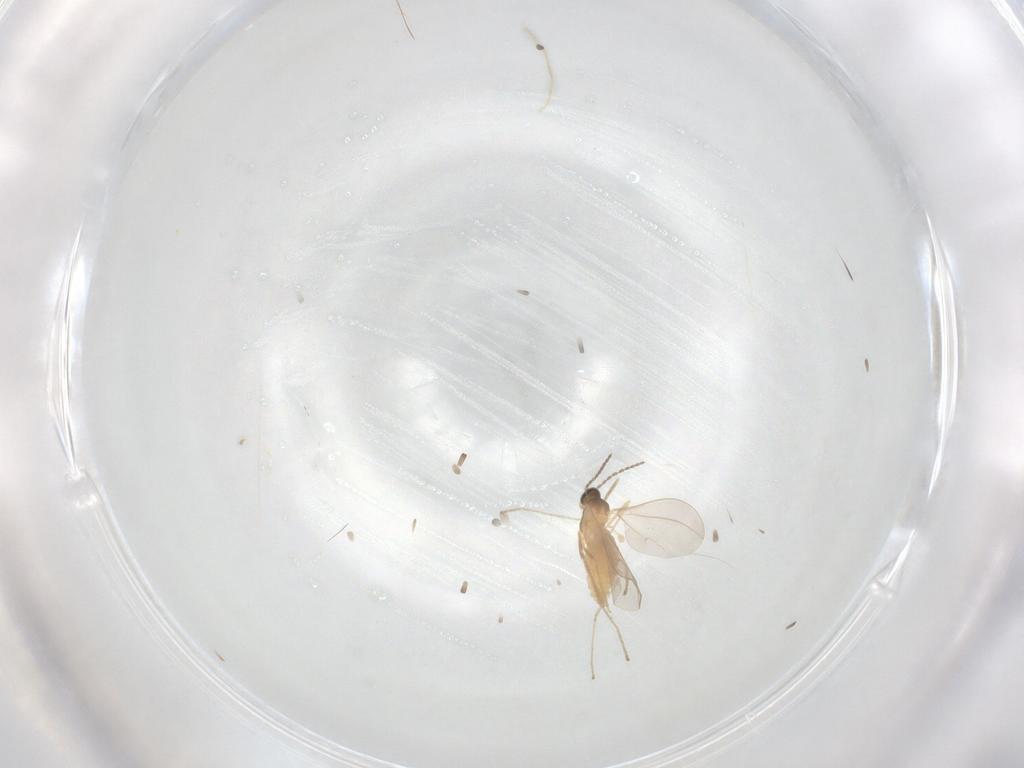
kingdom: Animalia
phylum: Arthropoda
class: Insecta
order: Diptera
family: Cecidomyiidae
